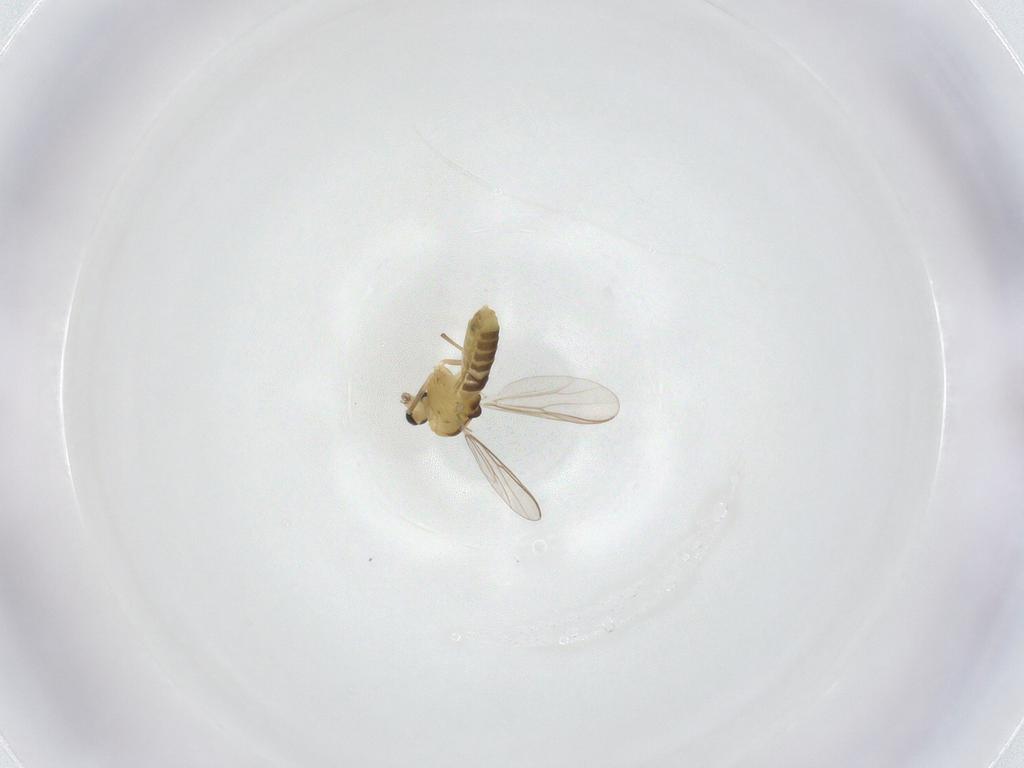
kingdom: Animalia
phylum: Arthropoda
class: Insecta
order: Diptera
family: Chironomidae
